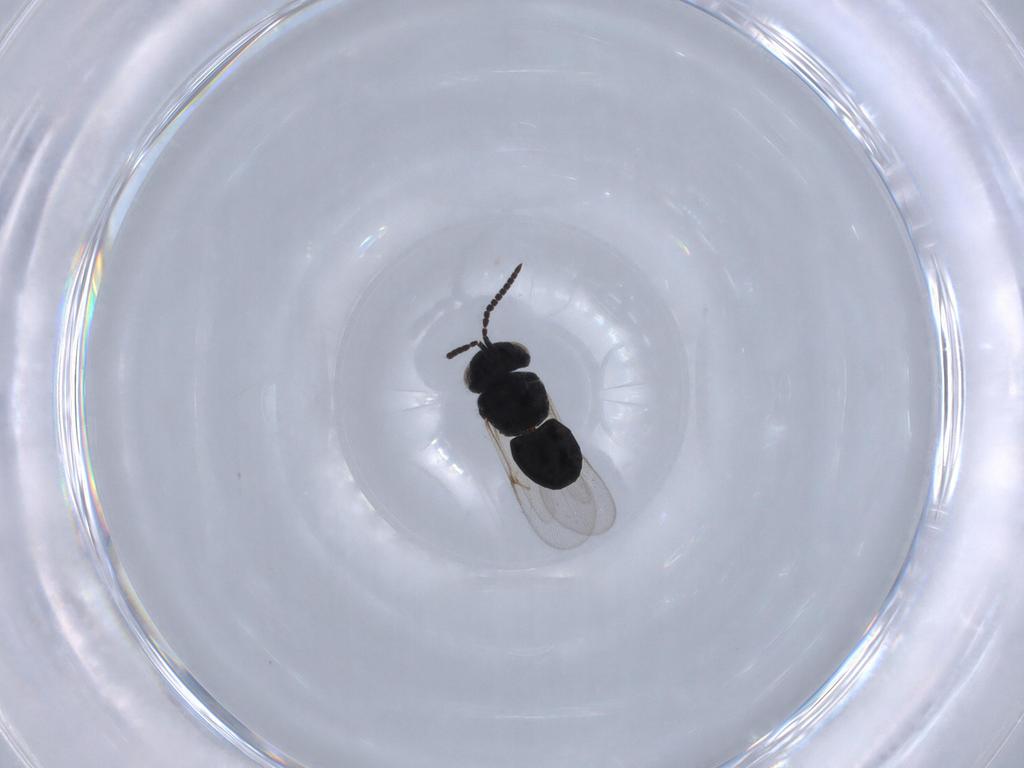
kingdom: Animalia
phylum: Arthropoda
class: Insecta
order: Hymenoptera
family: Scelionidae
